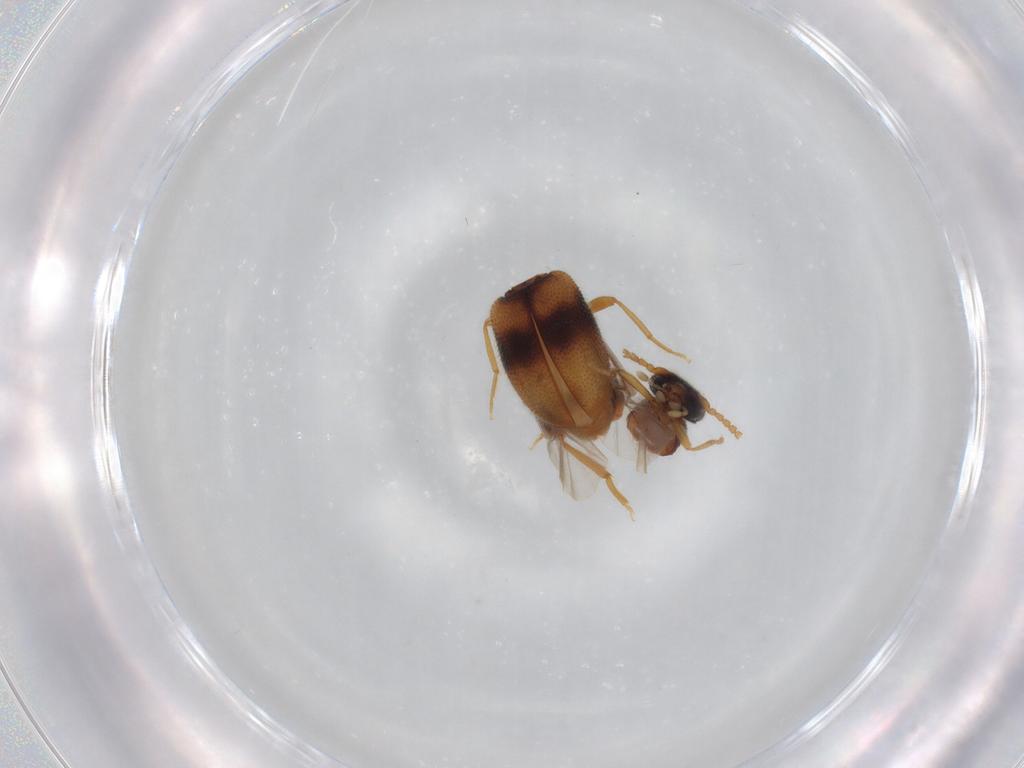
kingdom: Animalia
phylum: Arthropoda
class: Insecta
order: Coleoptera
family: Aderidae
